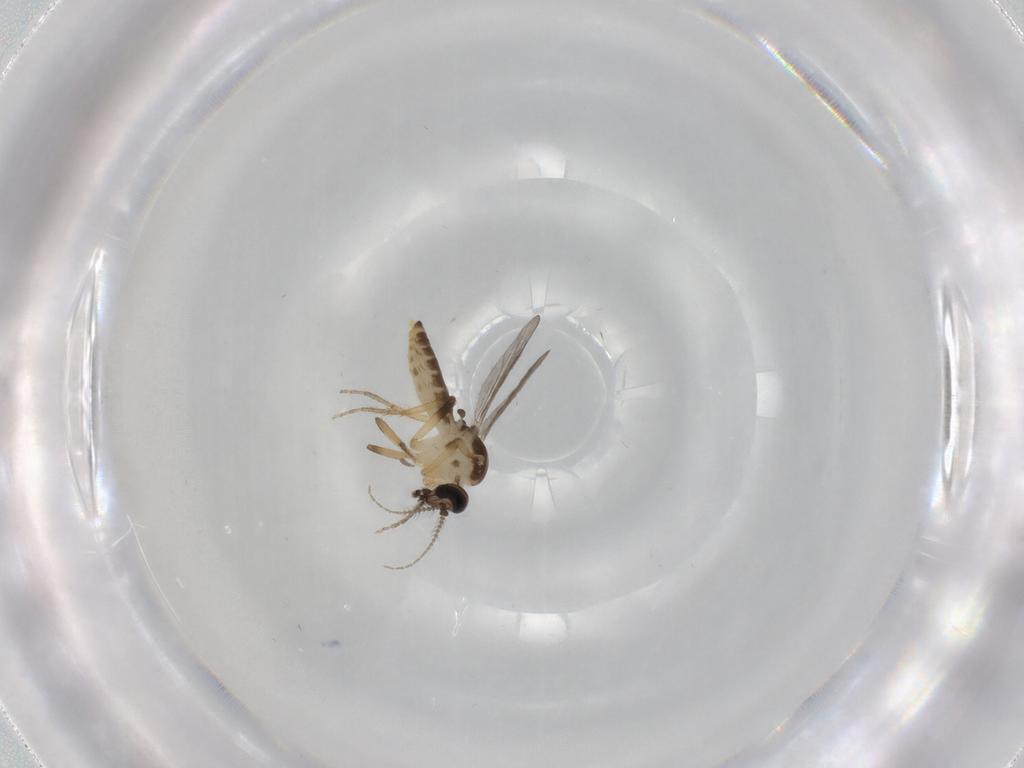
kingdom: Animalia
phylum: Arthropoda
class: Insecta
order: Diptera
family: Ceratopogonidae
